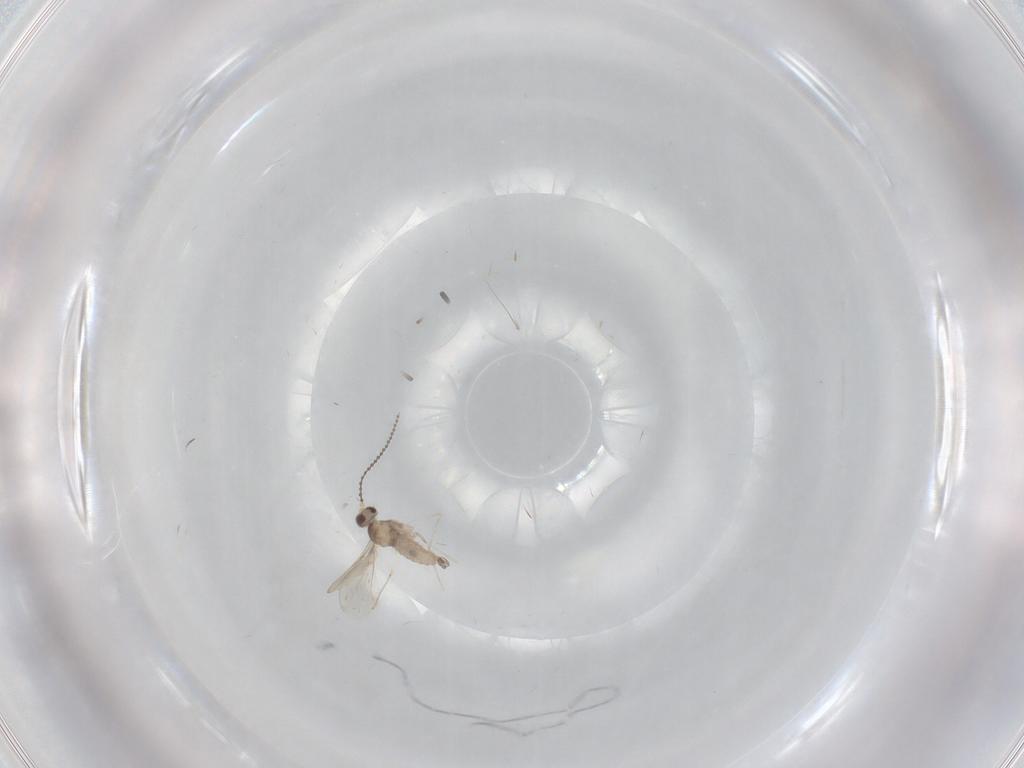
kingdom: Animalia
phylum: Arthropoda
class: Insecta
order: Diptera
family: Cecidomyiidae
